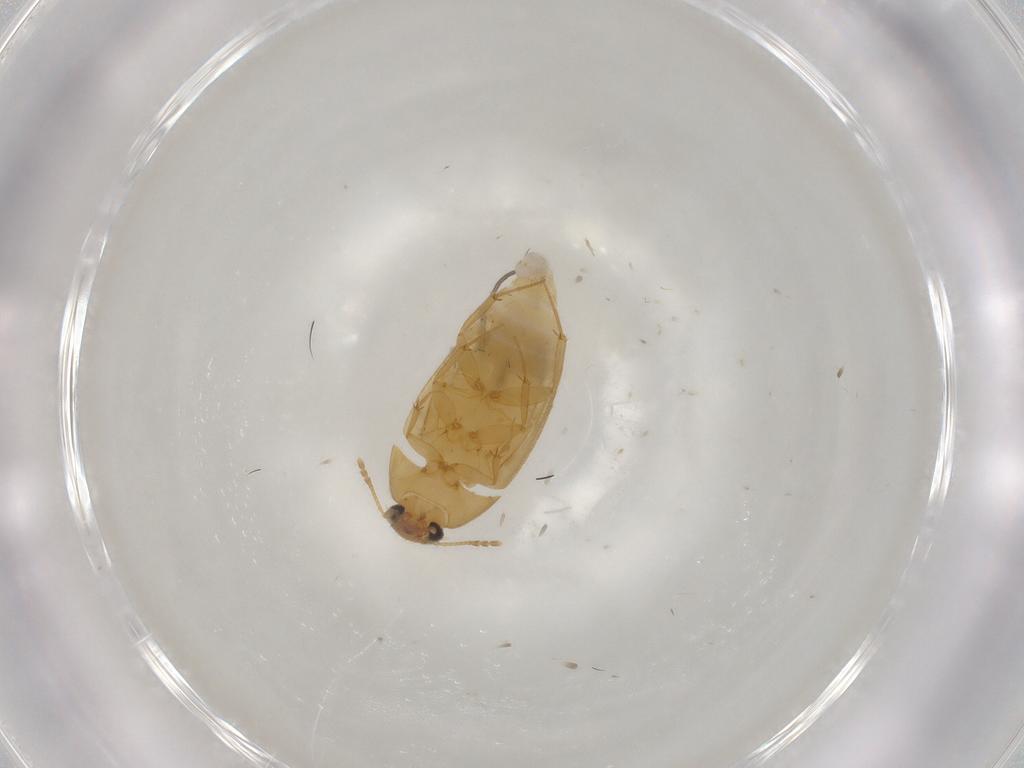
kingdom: Animalia
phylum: Arthropoda
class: Insecta
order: Coleoptera
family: Mycetophagidae
